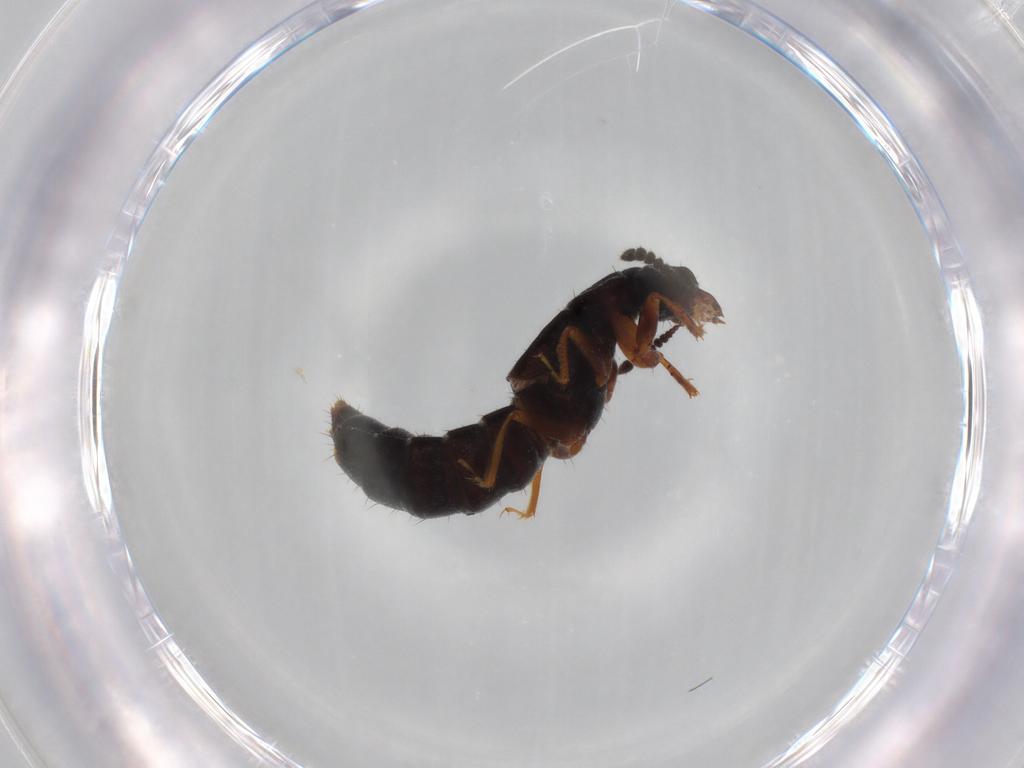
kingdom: Animalia
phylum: Arthropoda
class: Insecta
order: Coleoptera
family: Staphylinidae
